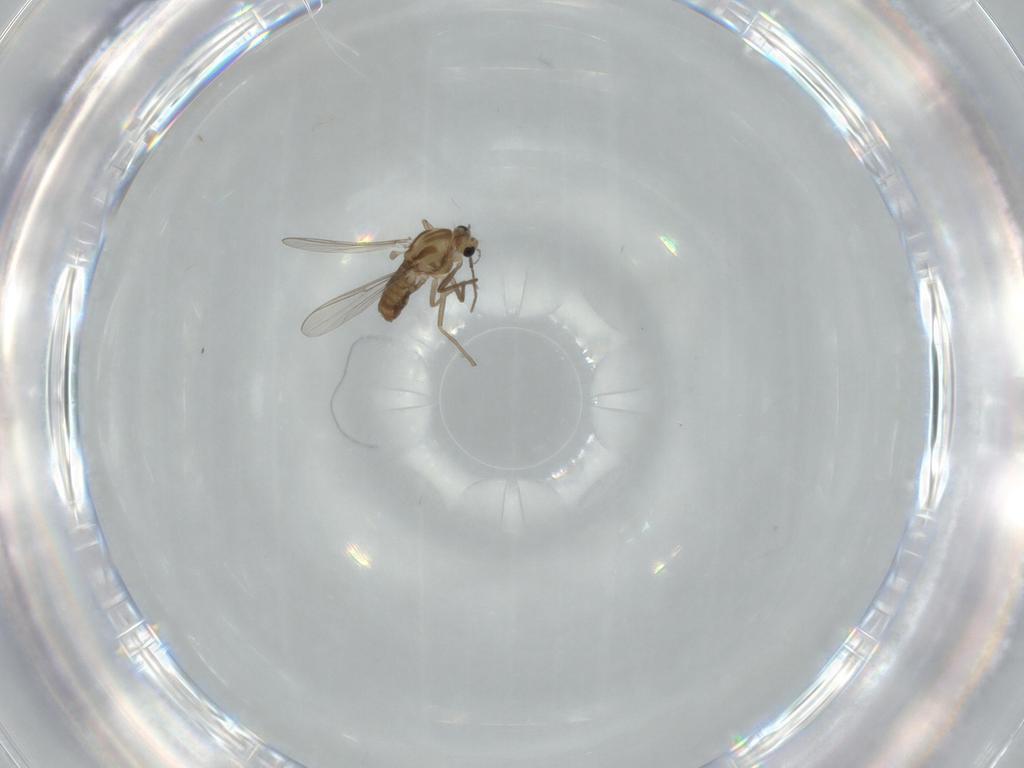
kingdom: Animalia
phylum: Arthropoda
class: Insecta
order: Diptera
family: Chironomidae
